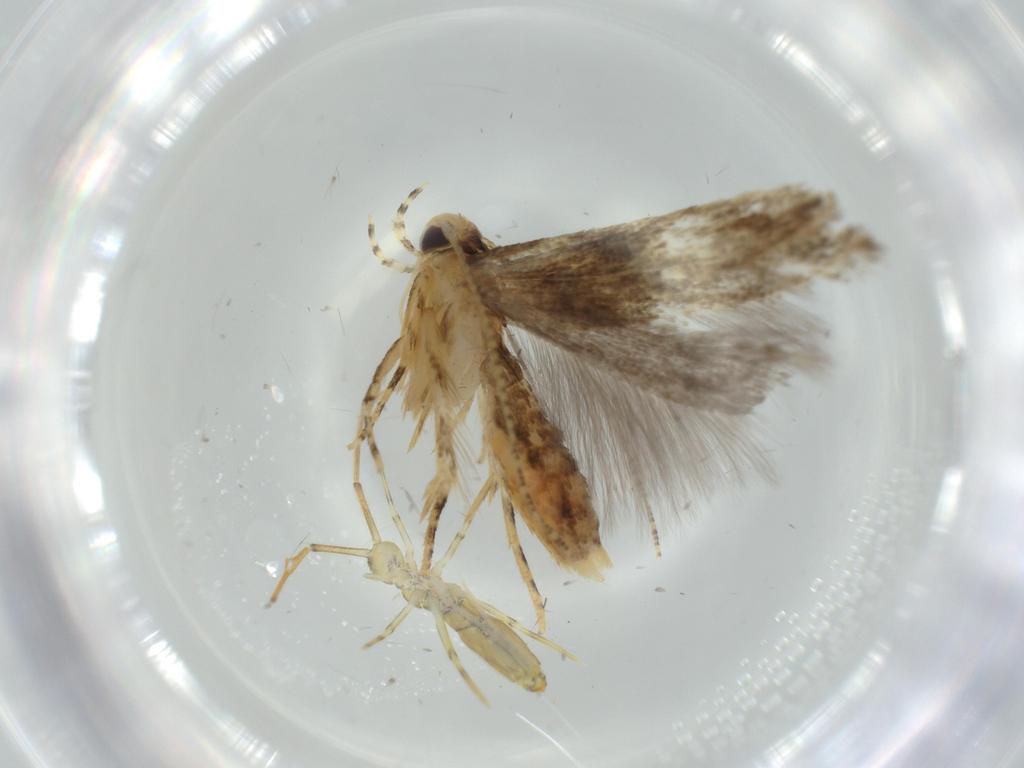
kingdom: Animalia
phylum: Arthropoda
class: Insecta
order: Lepidoptera
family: Gelechiidae
